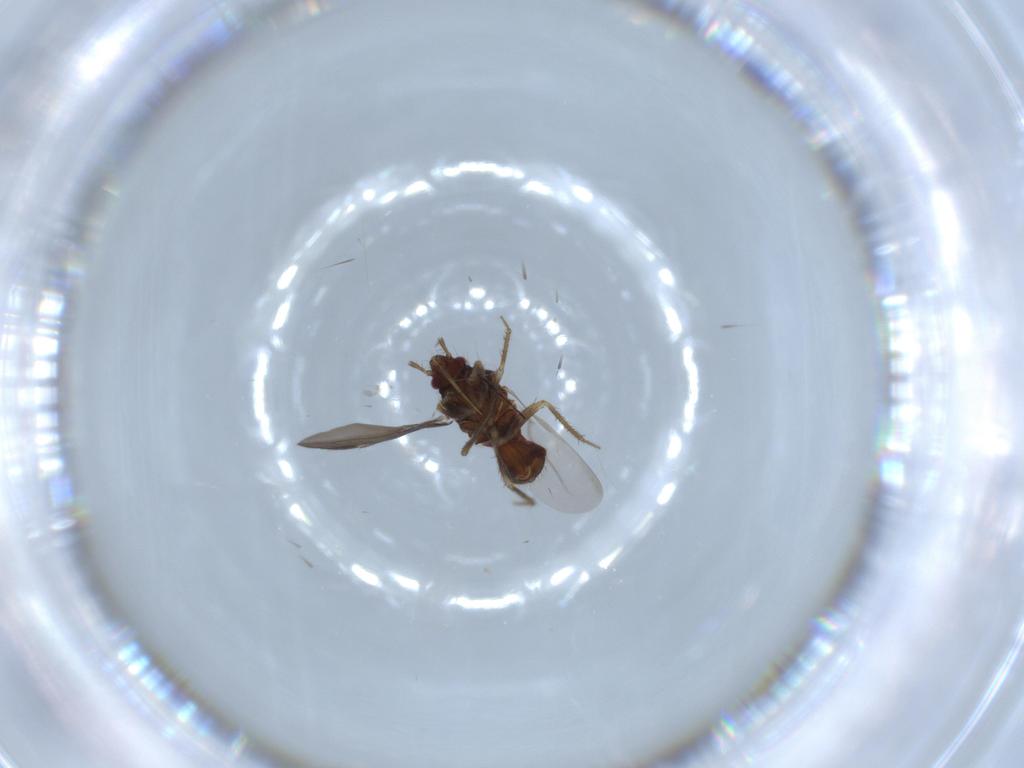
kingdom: Animalia
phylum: Arthropoda
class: Insecta
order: Hemiptera
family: Ceratocombidae
